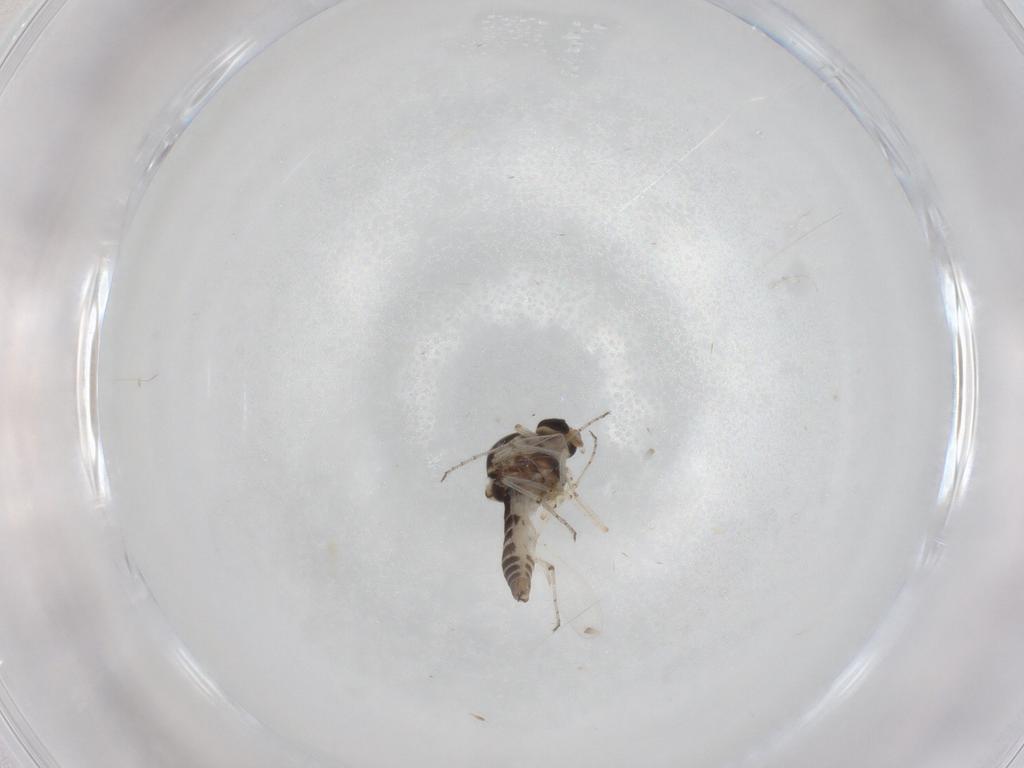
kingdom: Animalia
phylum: Arthropoda
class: Insecta
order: Diptera
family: Ceratopogonidae
